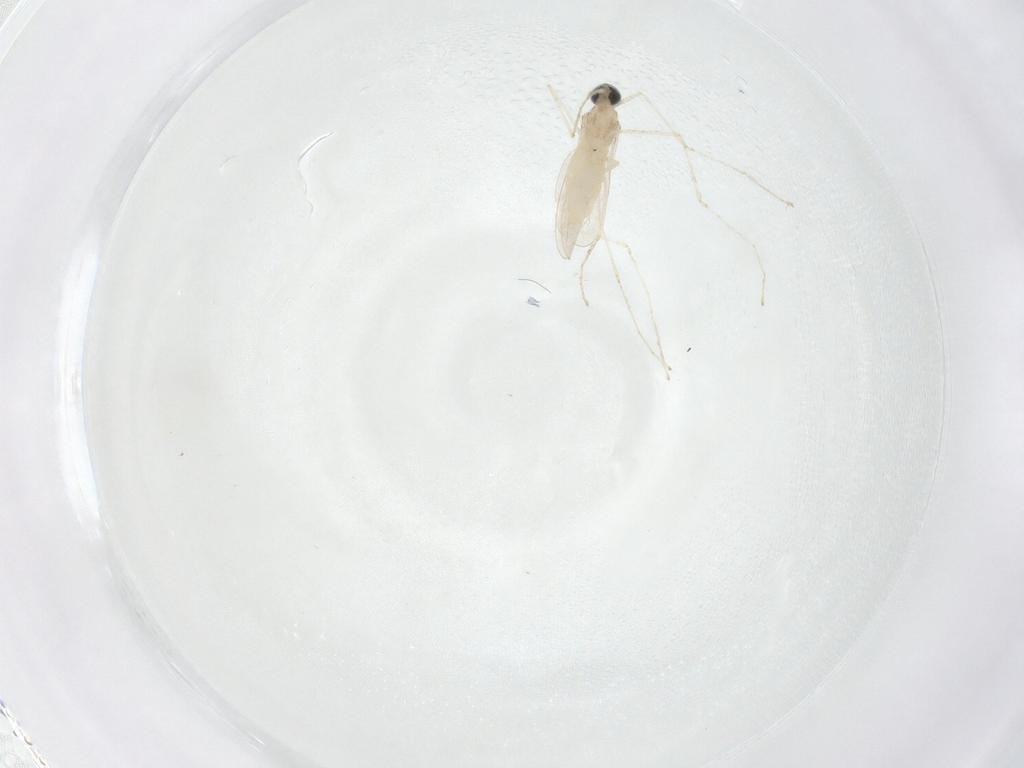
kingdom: Animalia
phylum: Arthropoda
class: Insecta
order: Diptera
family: Cecidomyiidae
